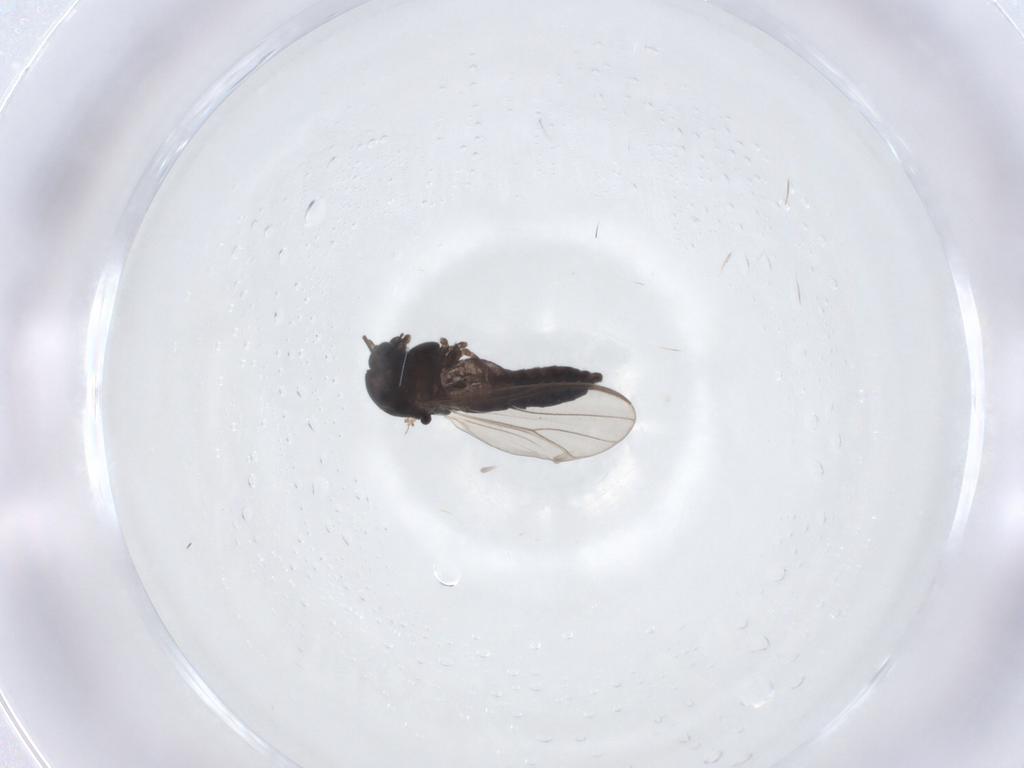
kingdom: Animalia
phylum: Arthropoda
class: Insecta
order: Diptera
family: Chironomidae
